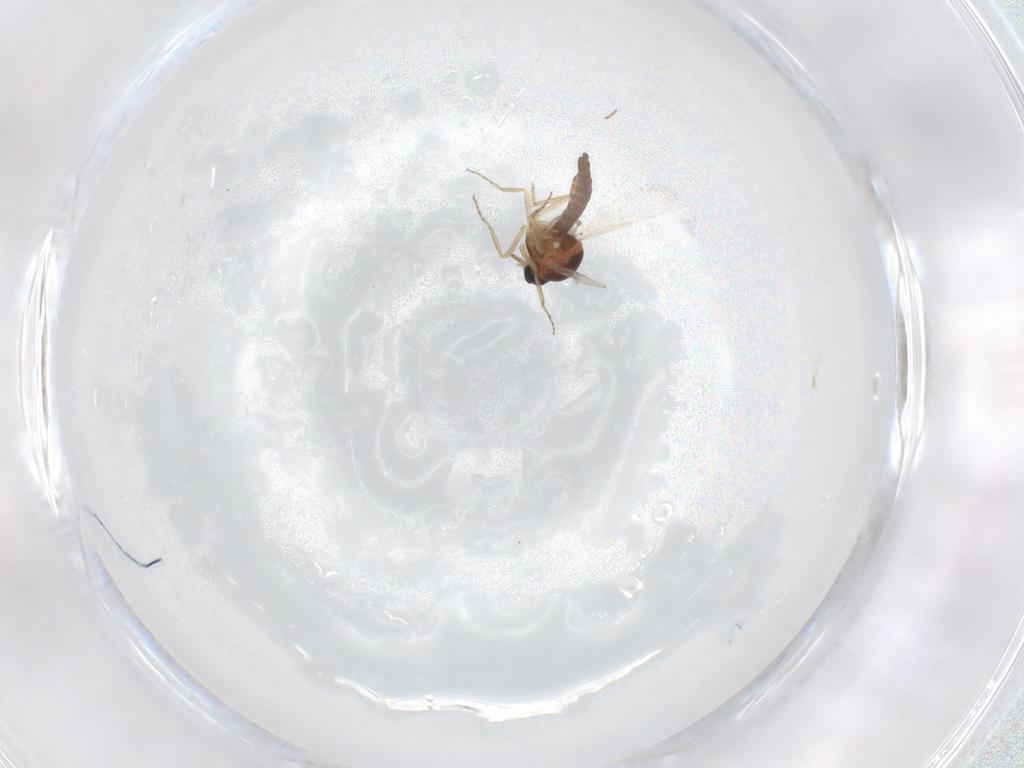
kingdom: Animalia
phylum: Arthropoda
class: Insecta
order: Diptera
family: Ceratopogonidae
